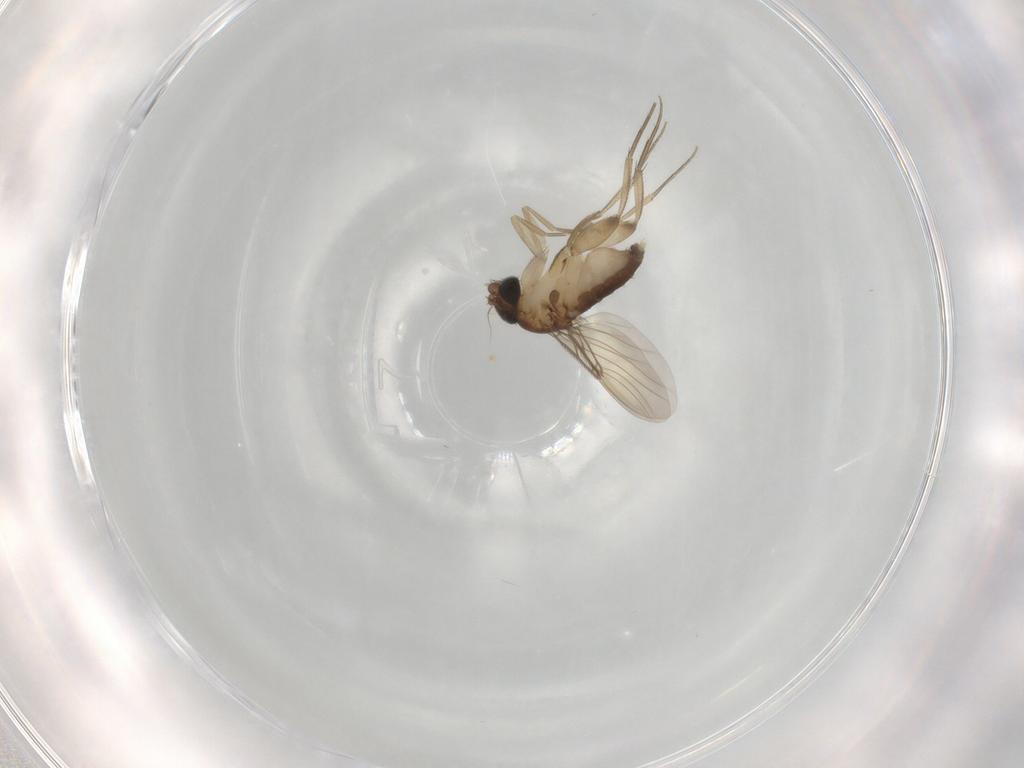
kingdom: Animalia
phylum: Arthropoda
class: Insecta
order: Diptera
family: Phoridae
